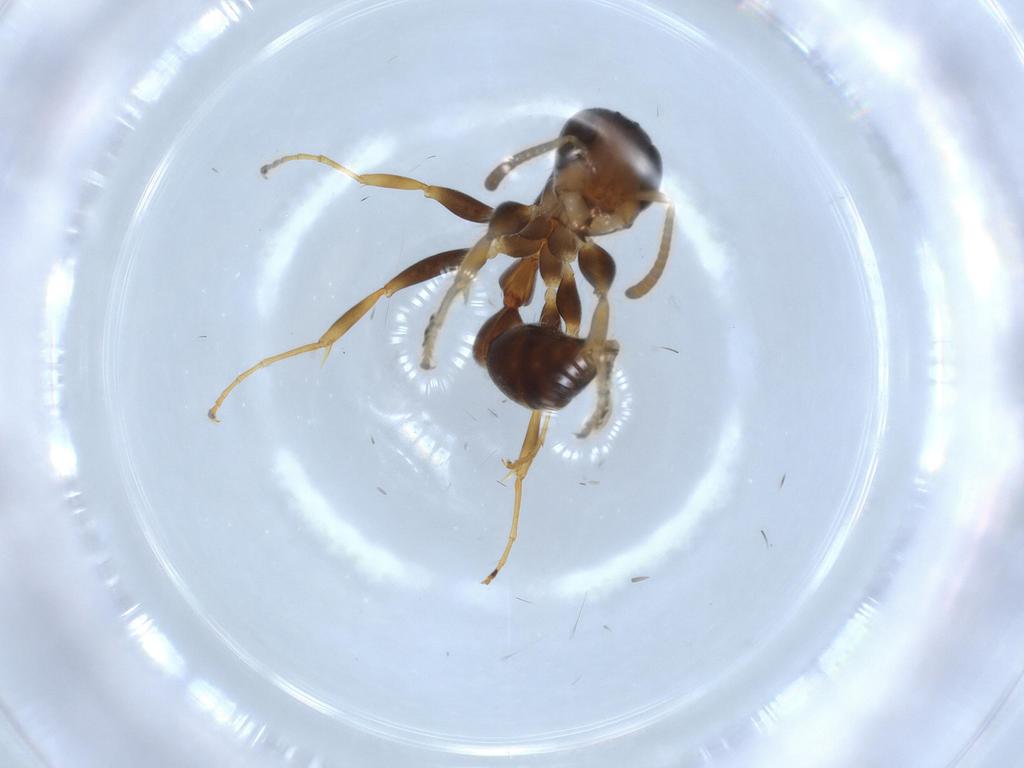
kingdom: Animalia
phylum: Arthropoda
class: Insecta
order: Hymenoptera
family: Formicidae
